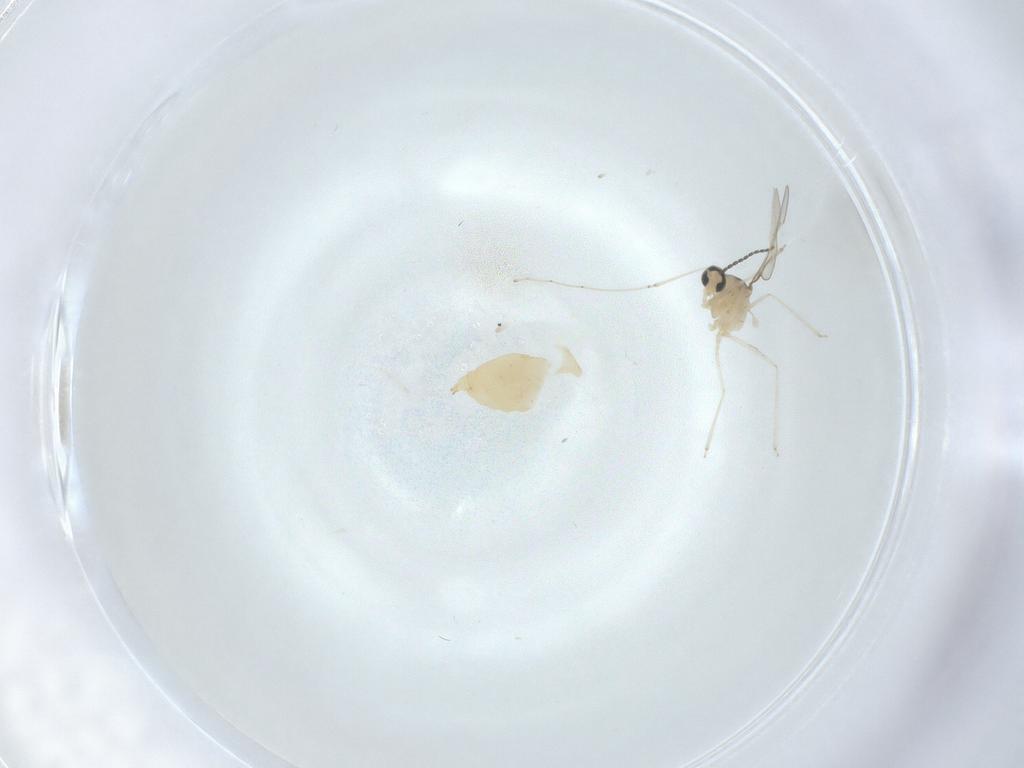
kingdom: Animalia
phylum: Arthropoda
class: Insecta
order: Diptera
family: Cecidomyiidae
